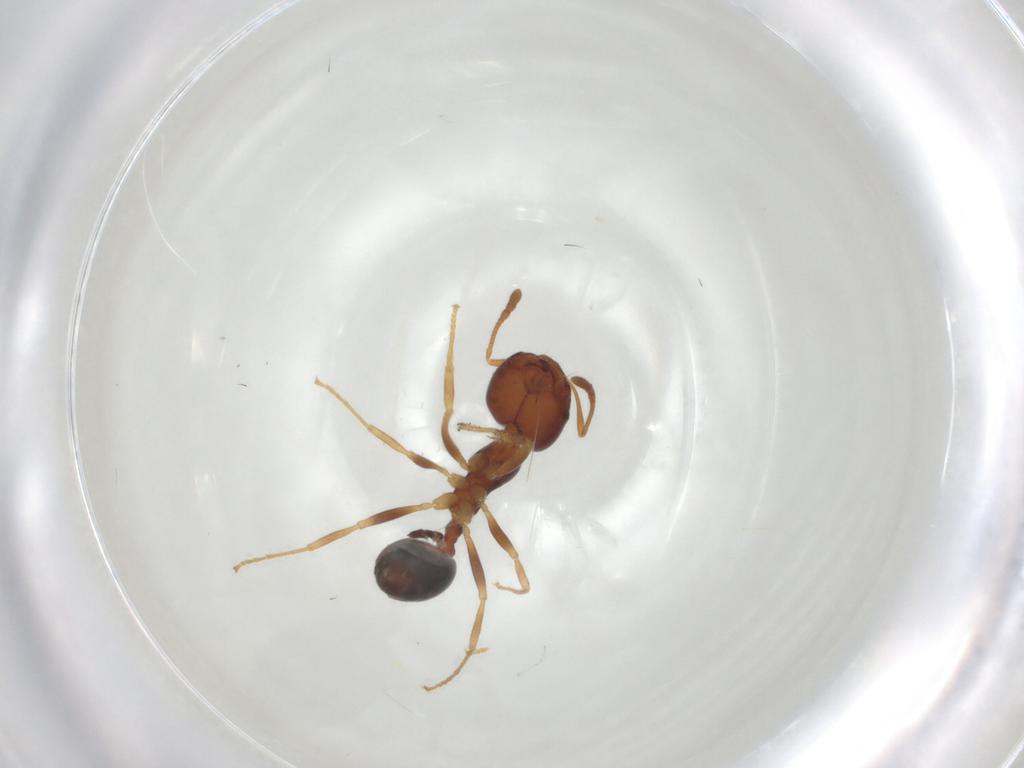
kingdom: Animalia
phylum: Arthropoda
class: Insecta
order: Hymenoptera
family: Formicidae
